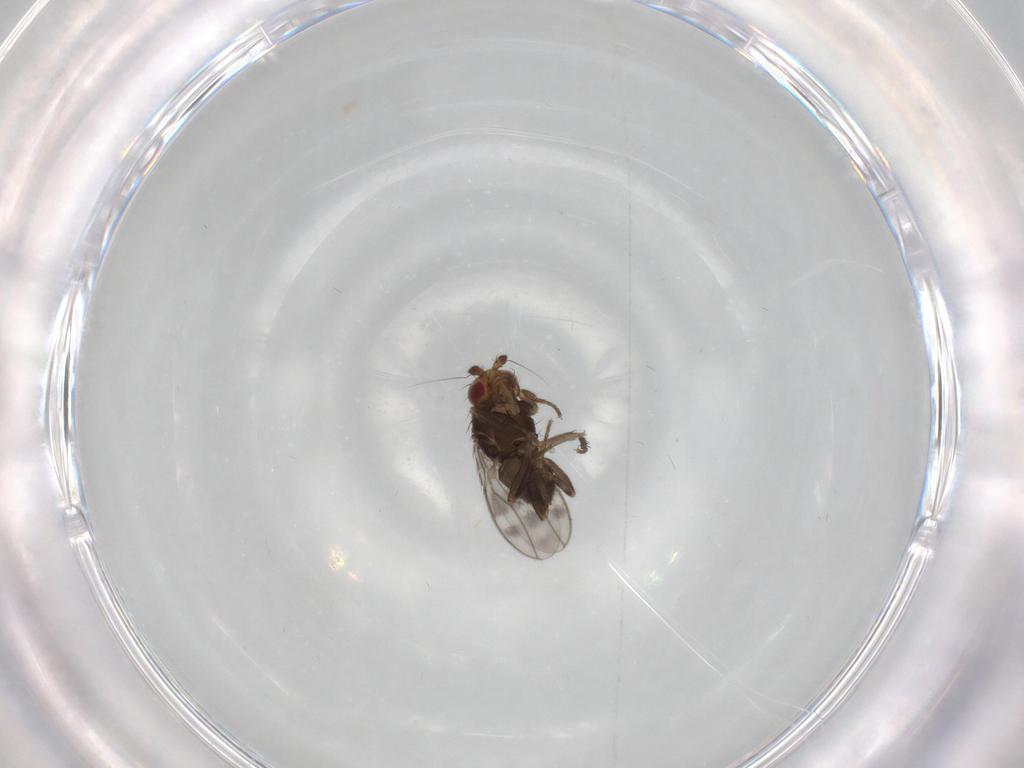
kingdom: Animalia
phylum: Arthropoda
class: Insecta
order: Diptera
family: Sphaeroceridae
